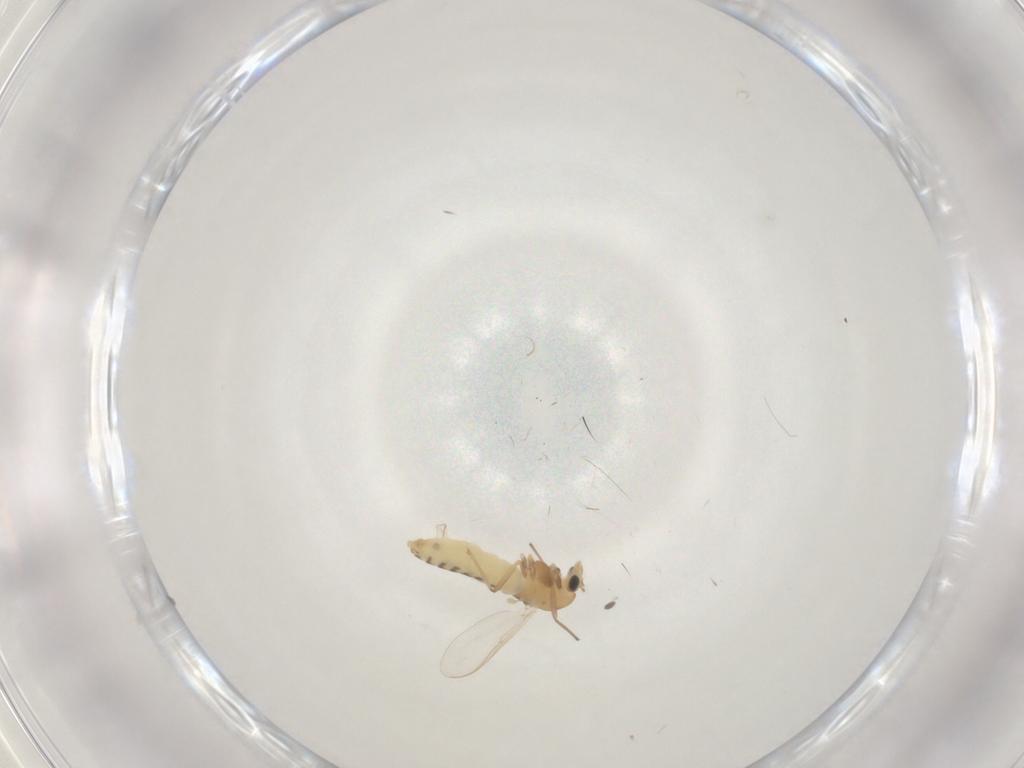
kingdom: Animalia
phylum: Arthropoda
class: Insecta
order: Diptera
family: Chironomidae
